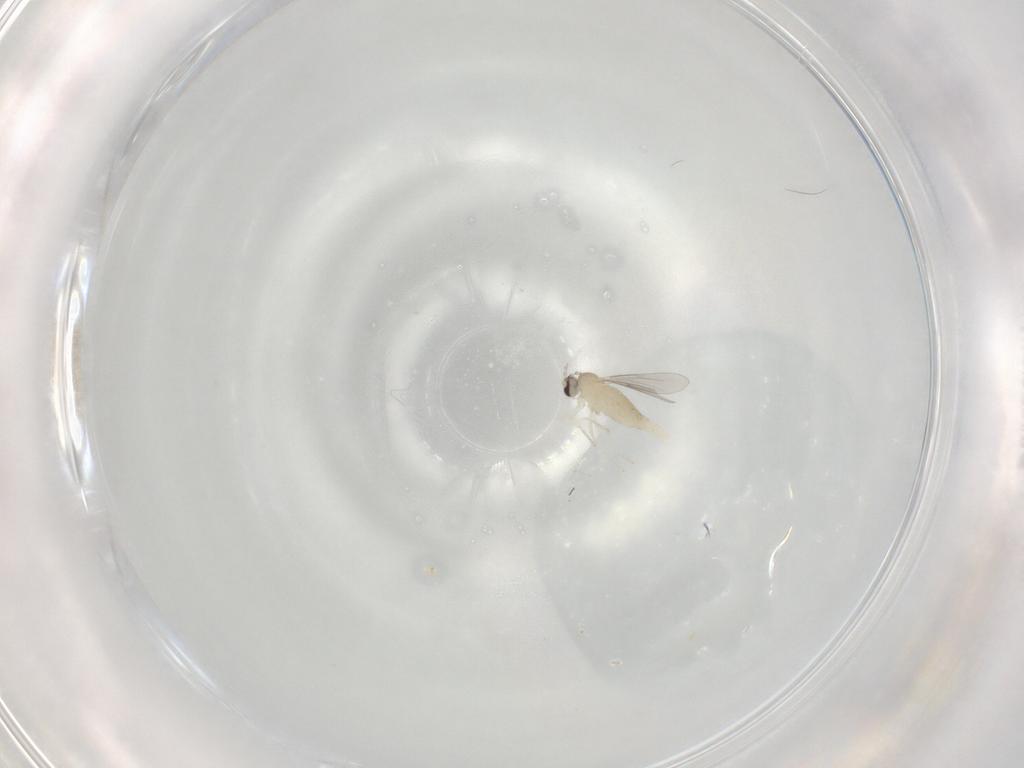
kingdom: Animalia
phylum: Arthropoda
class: Insecta
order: Diptera
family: Cecidomyiidae
